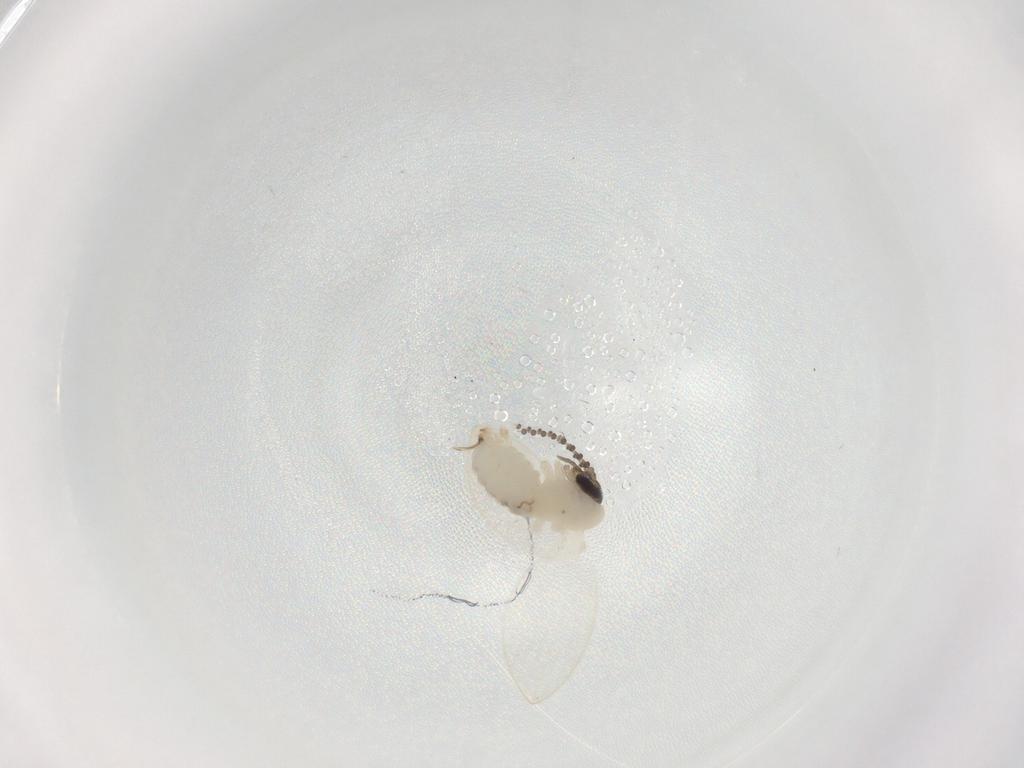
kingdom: Animalia
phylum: Arthropoda
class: Insecta
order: Diptera
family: Psychodidae
